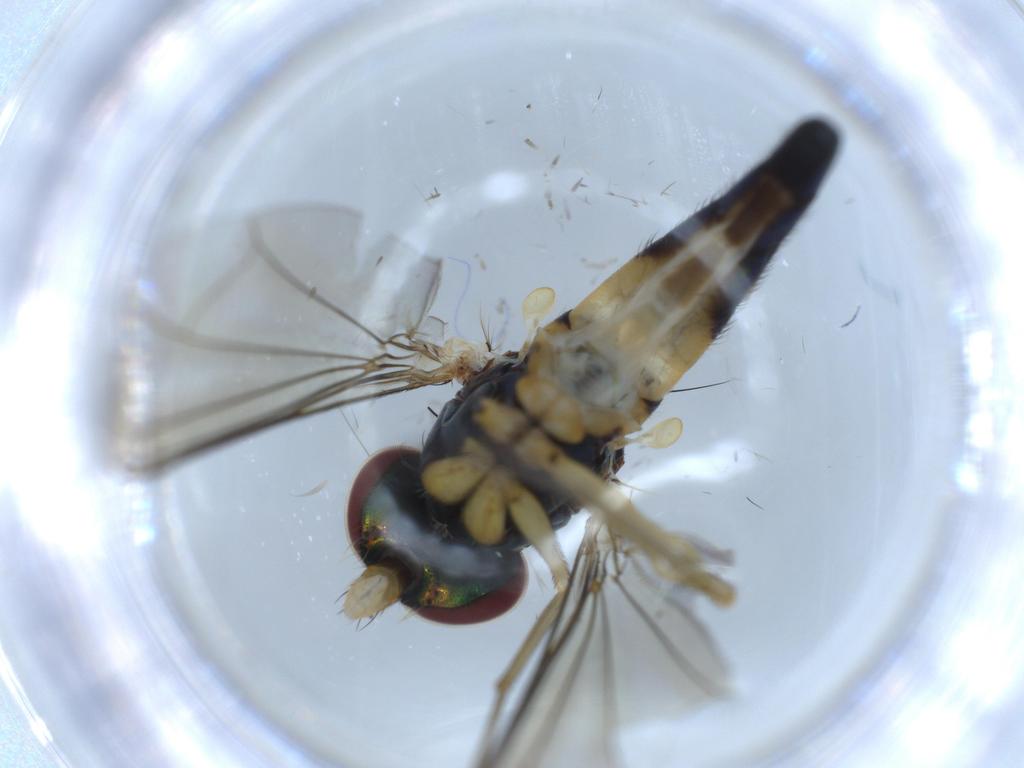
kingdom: Animalia
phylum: Arthropoda
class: Insecta
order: Diptera
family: Dolichopodidae
